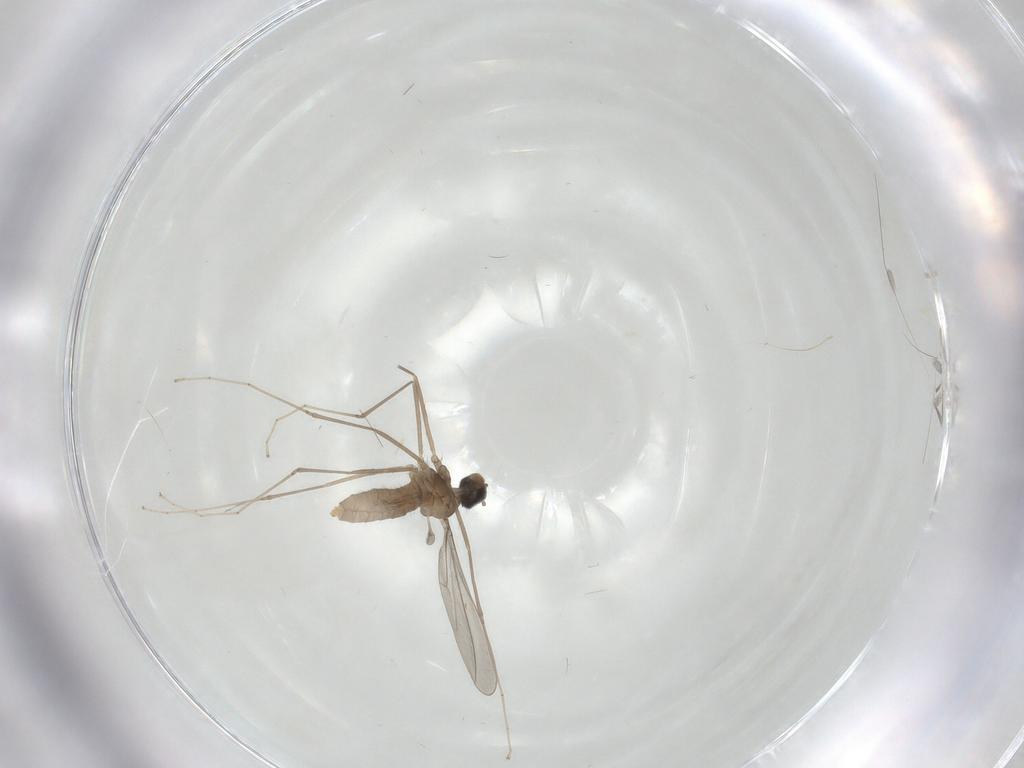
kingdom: Animalia
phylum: Arthropoda
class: Insecta
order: Diptera
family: Cecidomyiidae
